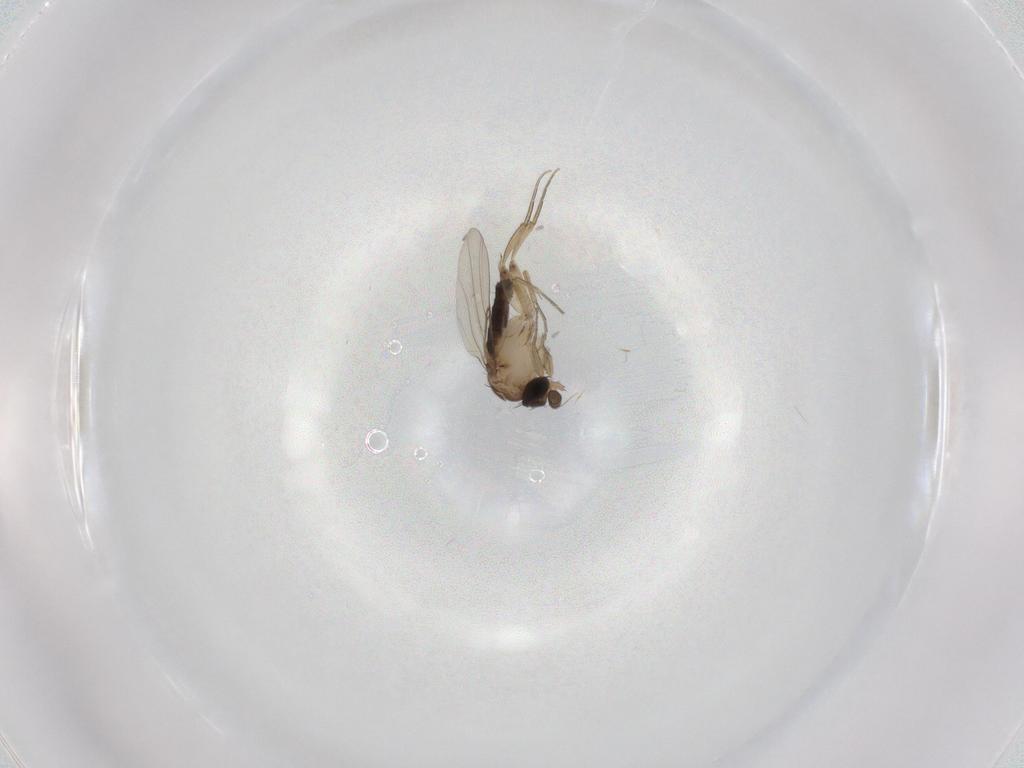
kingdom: Animalia
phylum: Arthropoda
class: Insecta
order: Diptera
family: Phoridae
